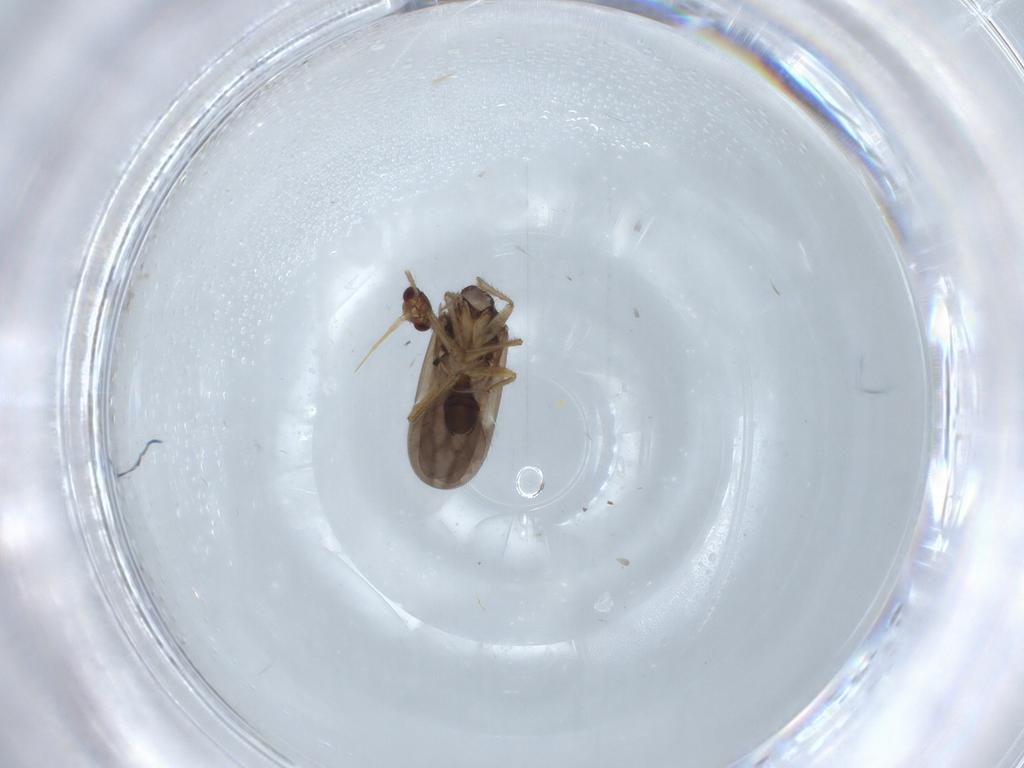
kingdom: Animalia
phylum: Arthropoda
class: Insecta
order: Hemiptera
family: Ceratocombidae
